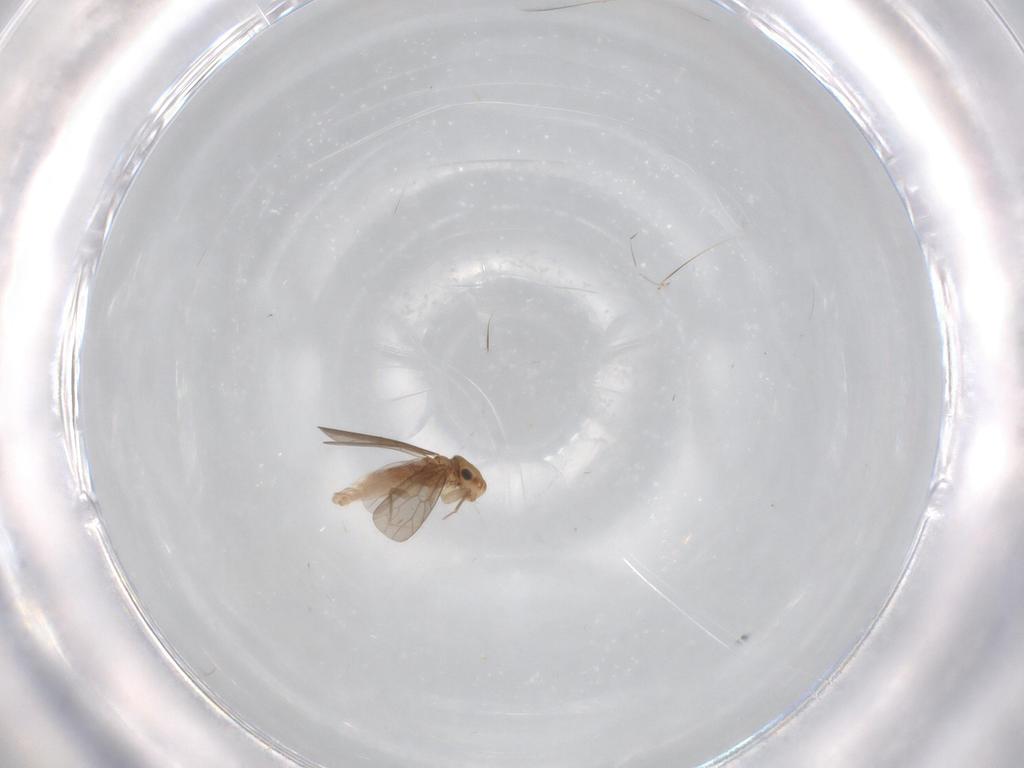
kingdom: Animalia
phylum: Arthropoda
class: Insecta
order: Psocodea
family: Lepidopsocidae
